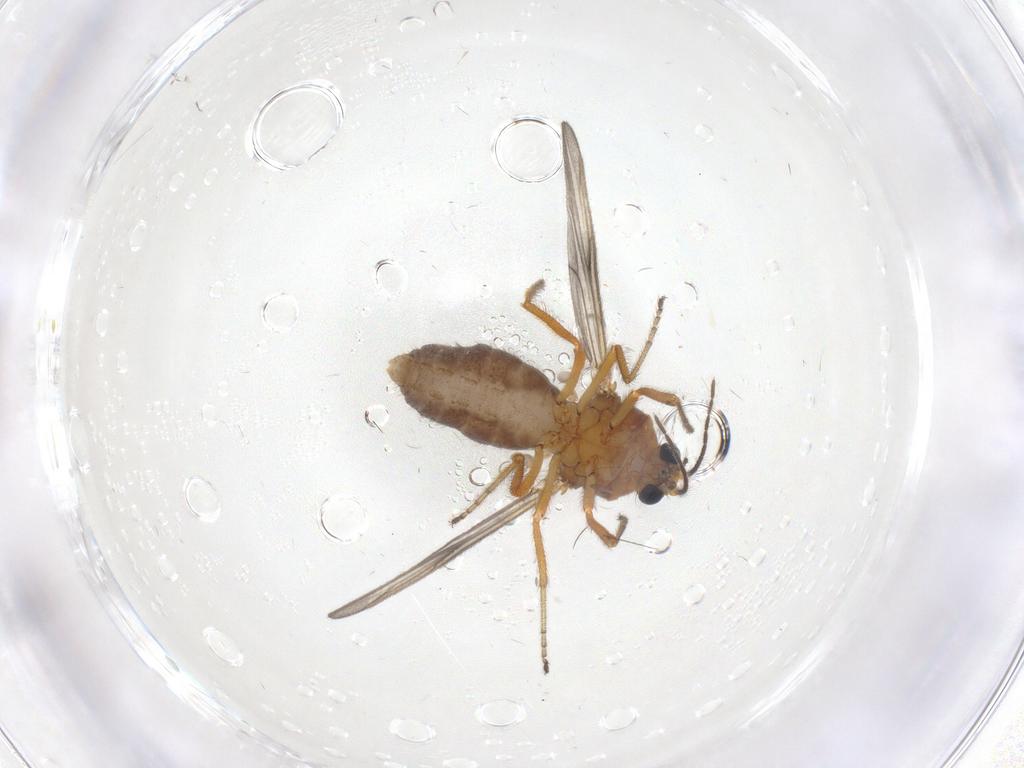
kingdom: Animalia
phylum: Arthropoda
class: Insecta
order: Diptera
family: Ceratopogonidae
